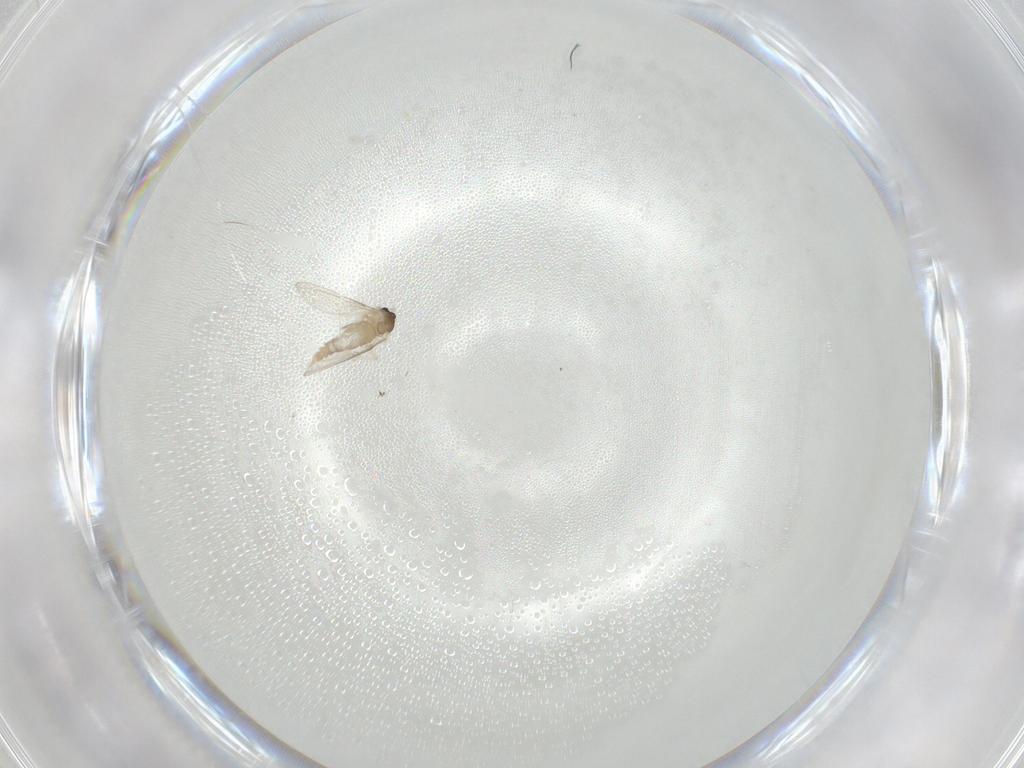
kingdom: Animalia
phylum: Arthropoda
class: Insecta
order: Diptera
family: Cecidomyiidae
